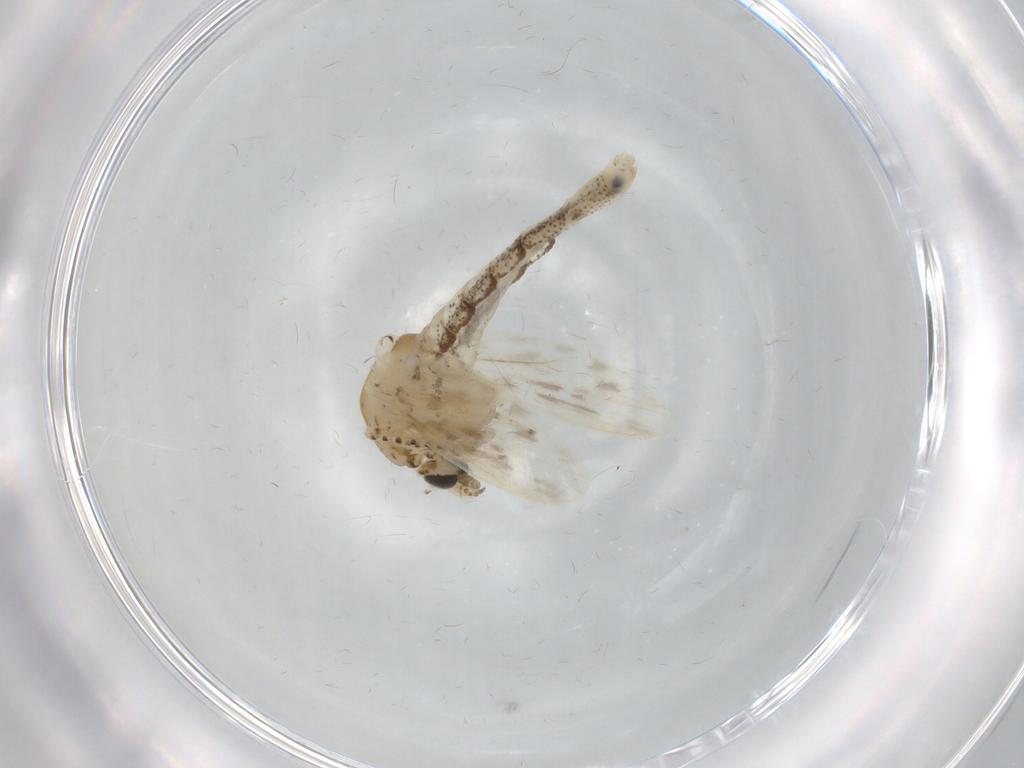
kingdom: Animalia
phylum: Arthropoda
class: Insecta
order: Diptera
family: Chaoboridae
